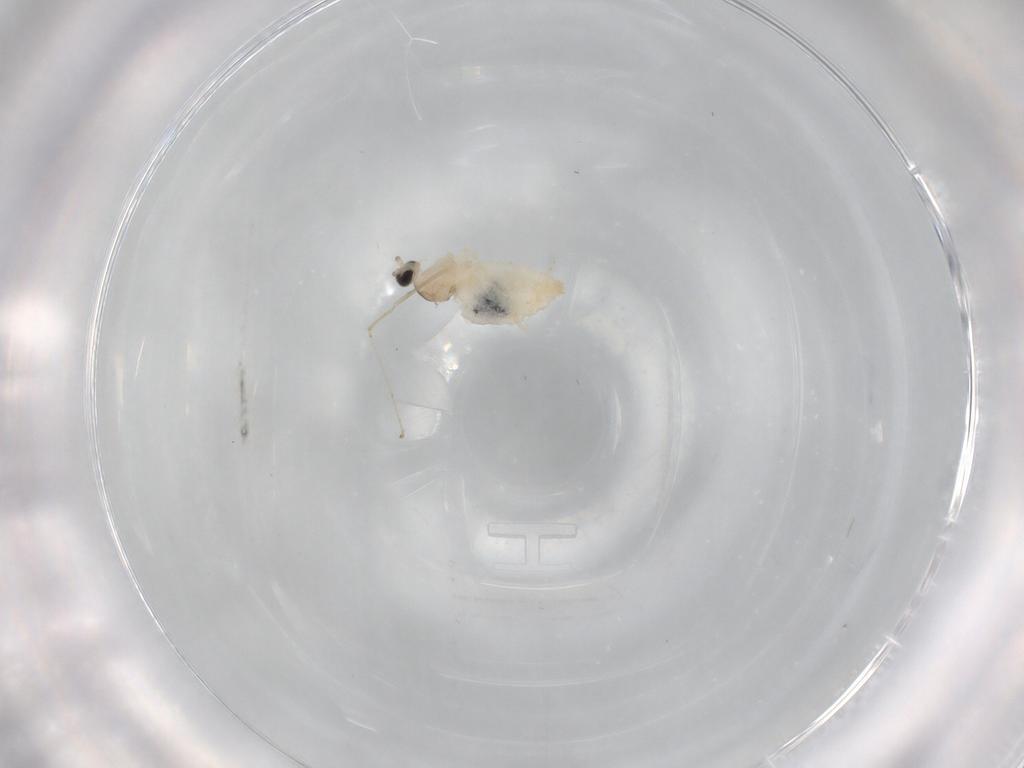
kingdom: Animalia
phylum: Arthropoda
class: Insecta
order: Diptera
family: Cecidomyiidae
